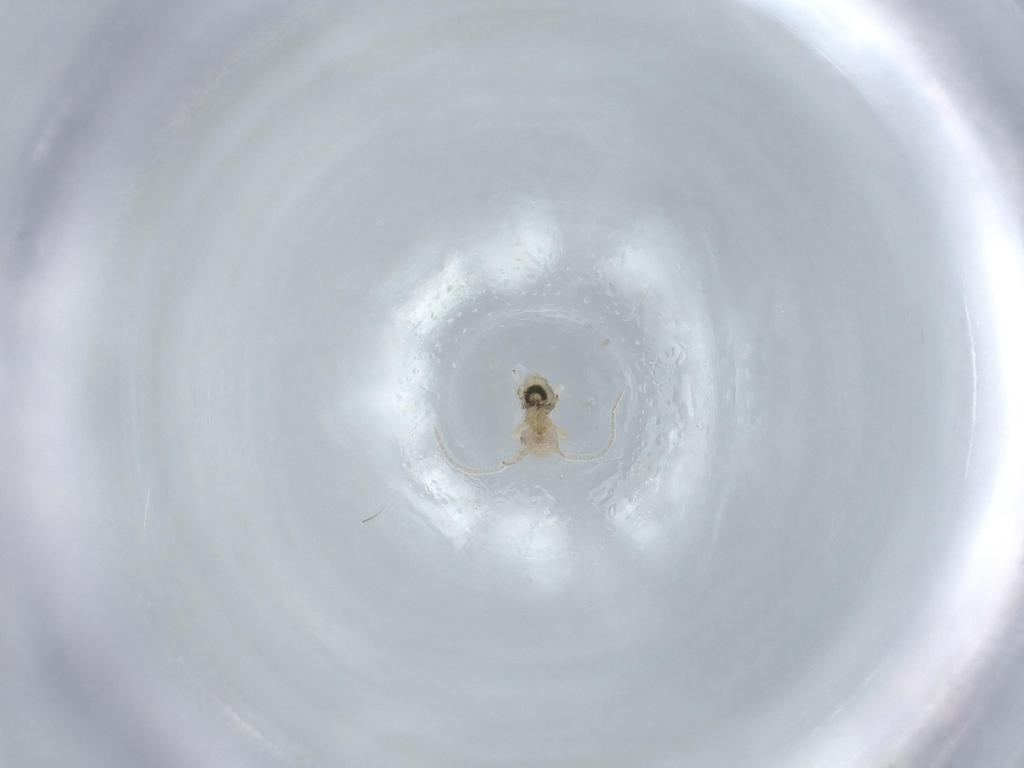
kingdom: Animalia
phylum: Arthropoda
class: Insecta
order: Psocodea
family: Caeciliusidae
